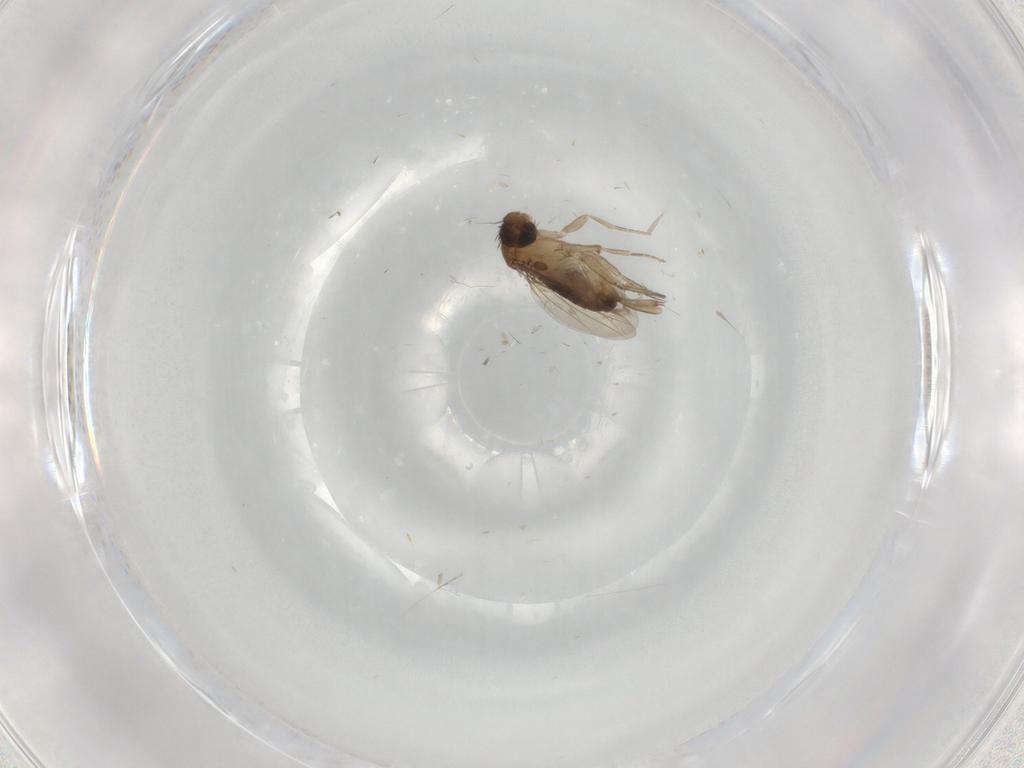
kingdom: Animalia
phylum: Arthropoda
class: Insecta
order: Diptera
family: Phoridae
